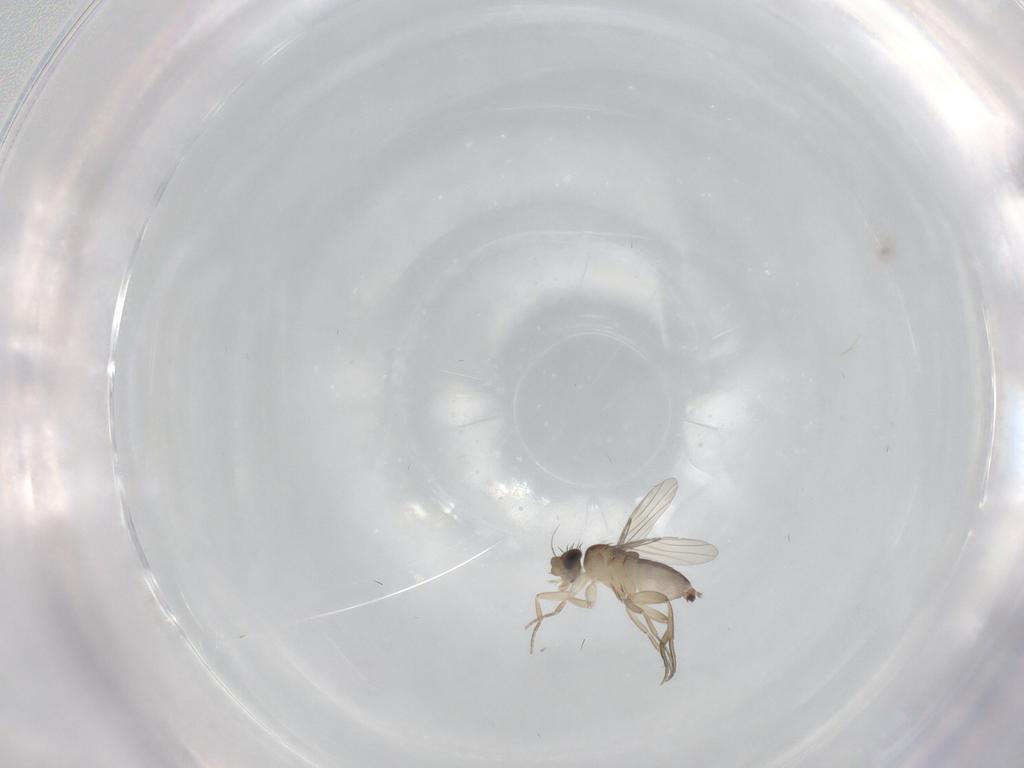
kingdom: Animalia
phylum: Arthropoda
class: Insecta
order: Diptera
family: Phoridae
